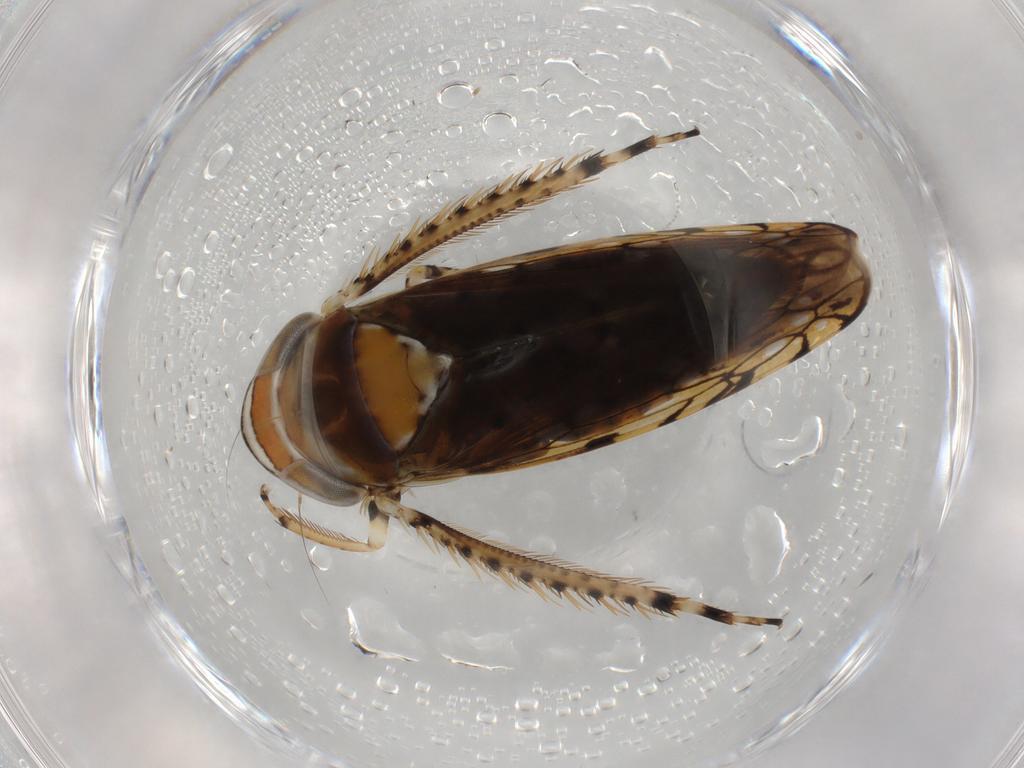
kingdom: Animalia
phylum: Arthropoda
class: Insecta
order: Hemiptera
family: Cicadellidae
